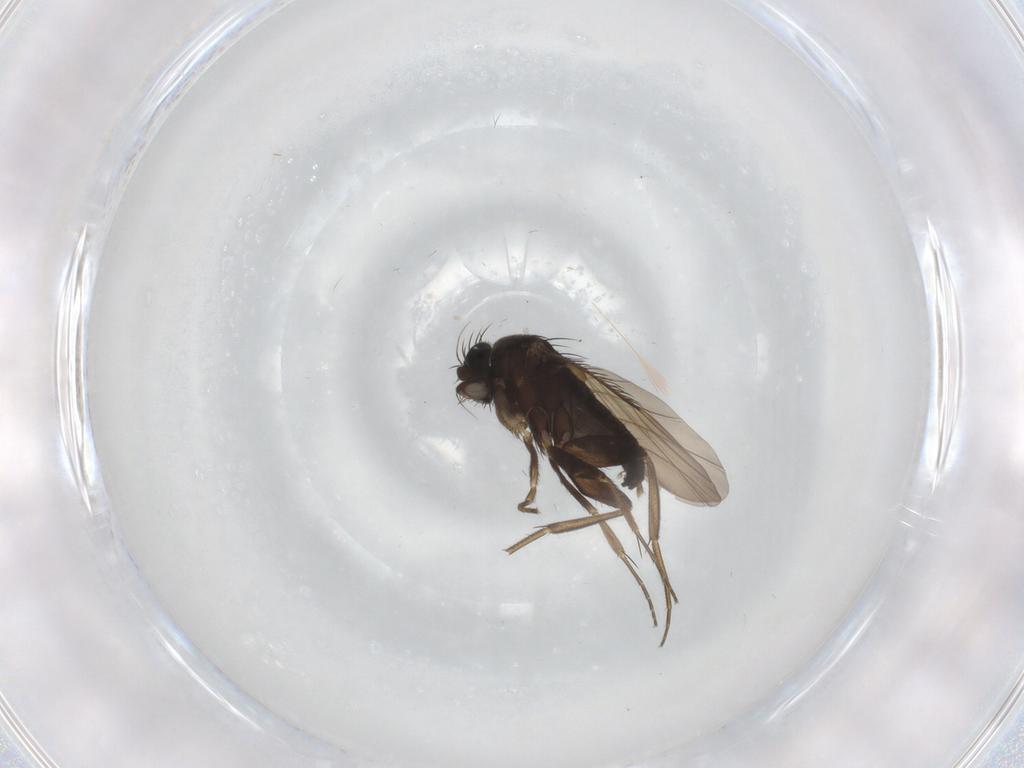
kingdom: Animalia
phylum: Arthropoda
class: Insecta
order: Diptera
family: Phoridae
